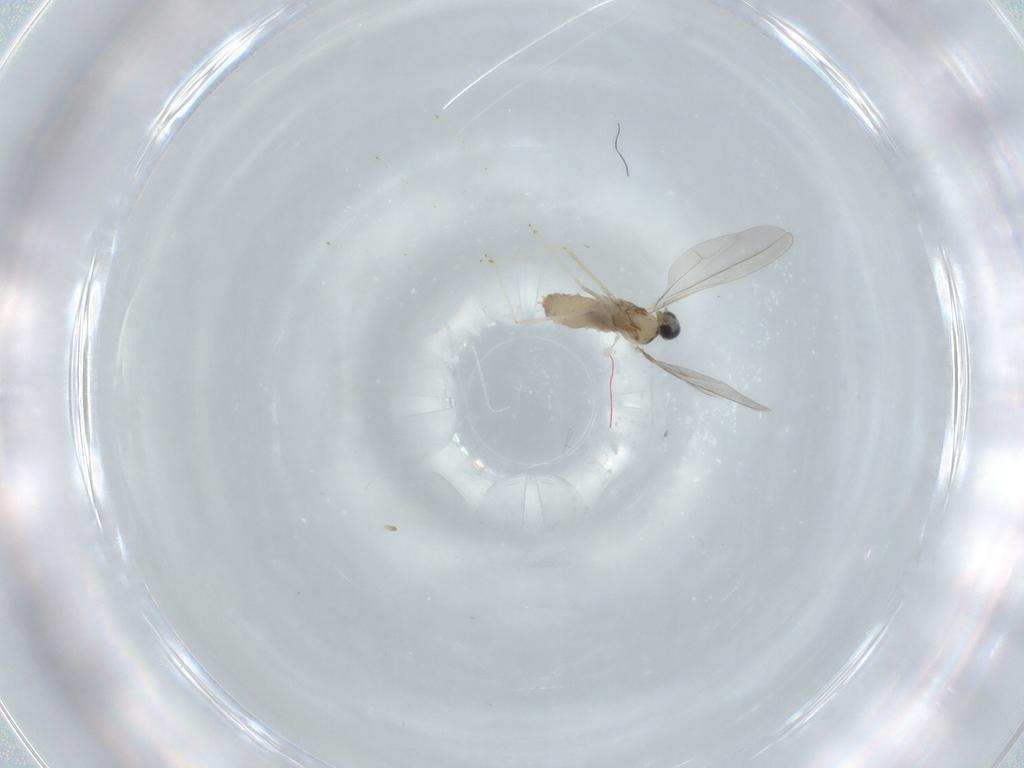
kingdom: Animalia
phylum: Arthropoda
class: Insecta
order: Diptera
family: Cecidomyiidae
